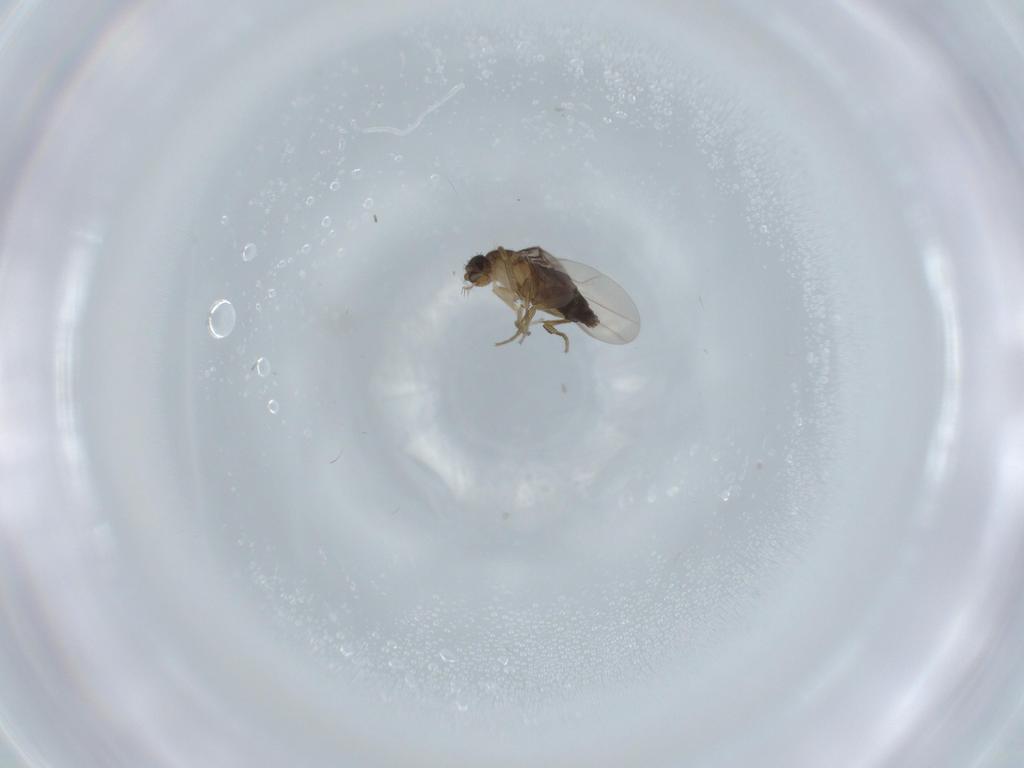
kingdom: Animalia
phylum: Arthropoda
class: Insecta
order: Diptera
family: Phoridae
